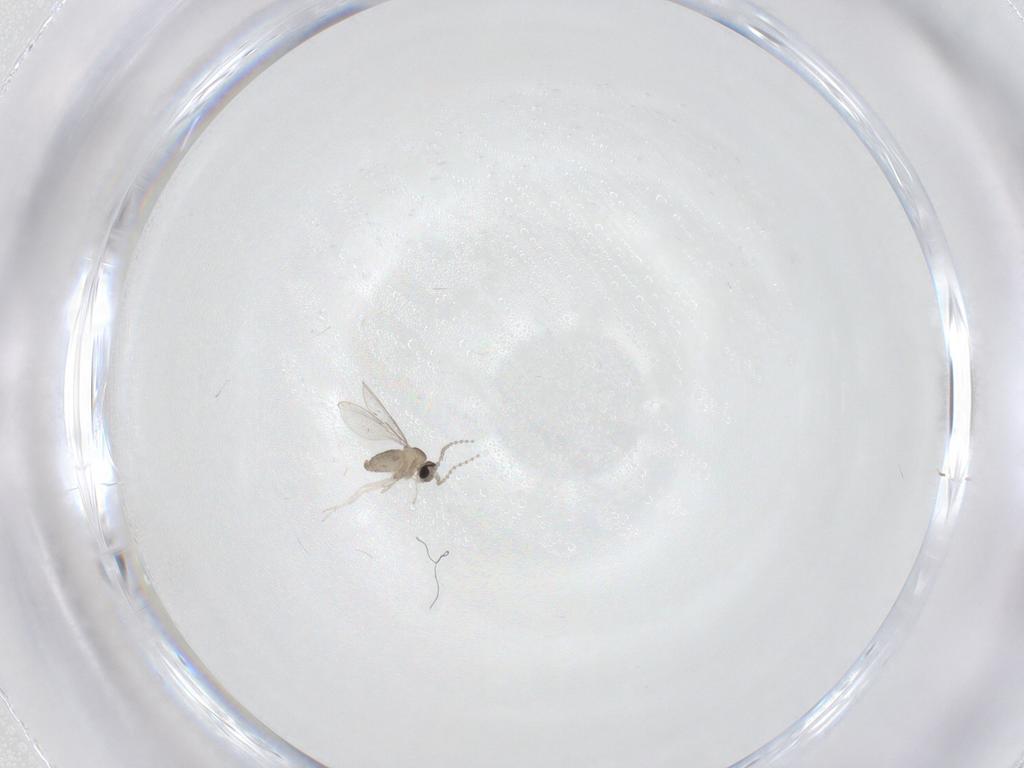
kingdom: Animalia
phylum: Arthropoda
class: Insecta
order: Diptera
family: Cecidomyiidae
